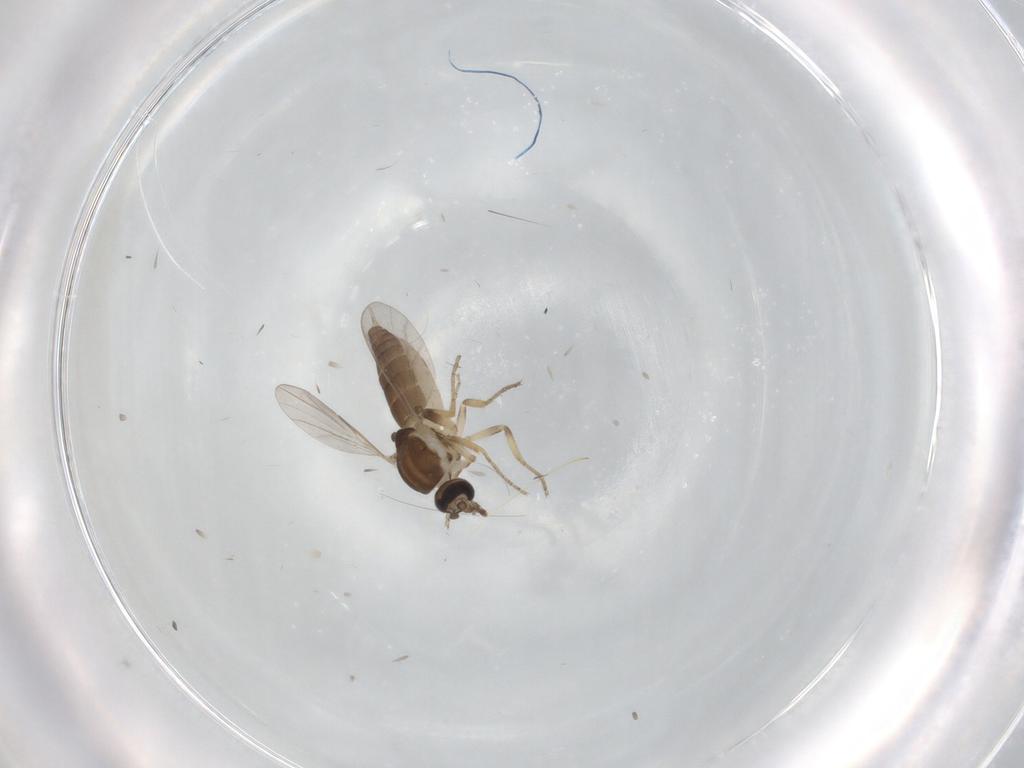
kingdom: Animalia
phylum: Arthropoda
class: Insecta
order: Diptera
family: Ceratopogonidae
